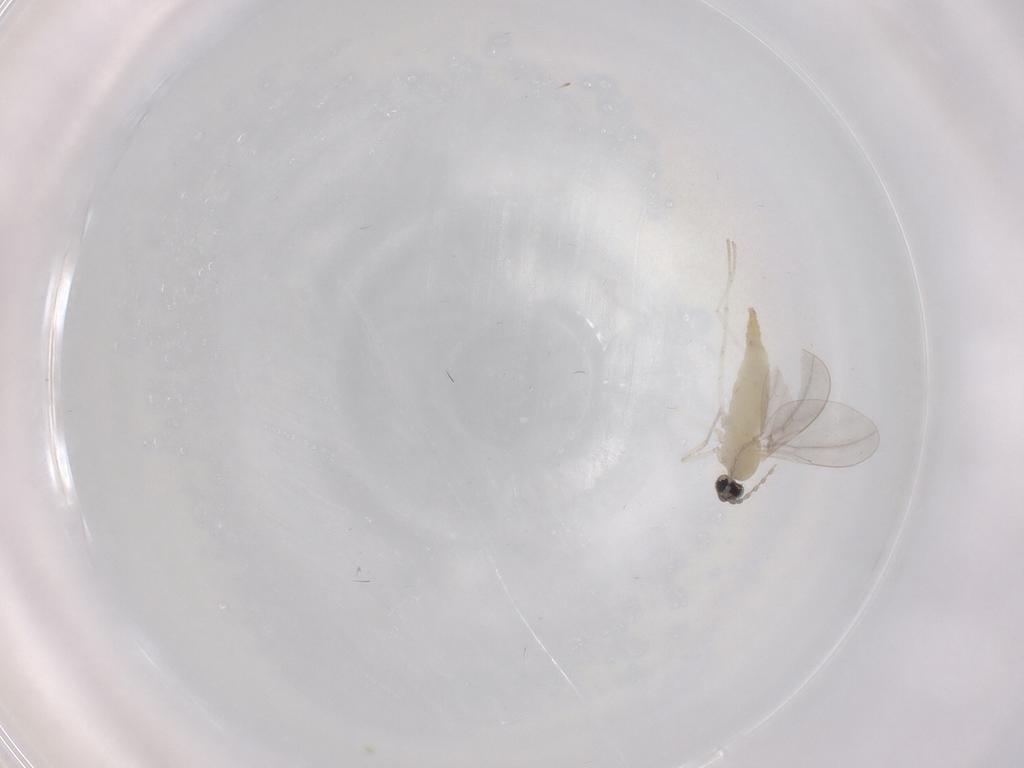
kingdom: Animalia
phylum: Arthropoda
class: Insecta
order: Diptera
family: Cecidomyiidae
